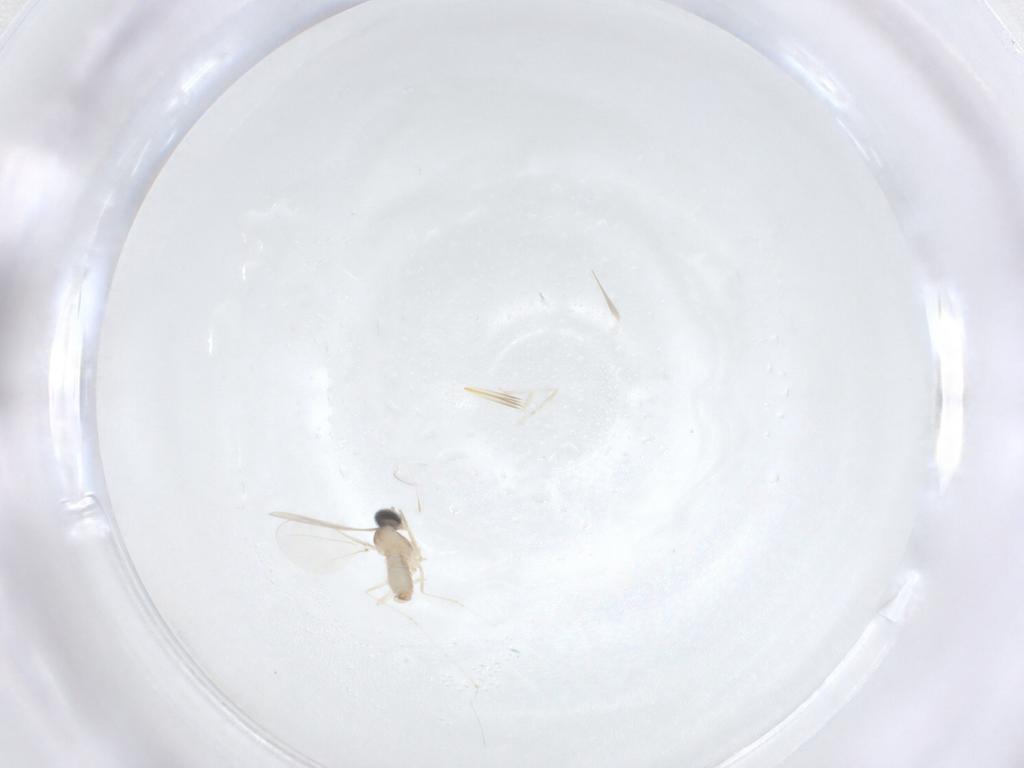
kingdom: Animalia
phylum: Arthropoda
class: Insecta
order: Diptera
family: Cecidomyiidae
